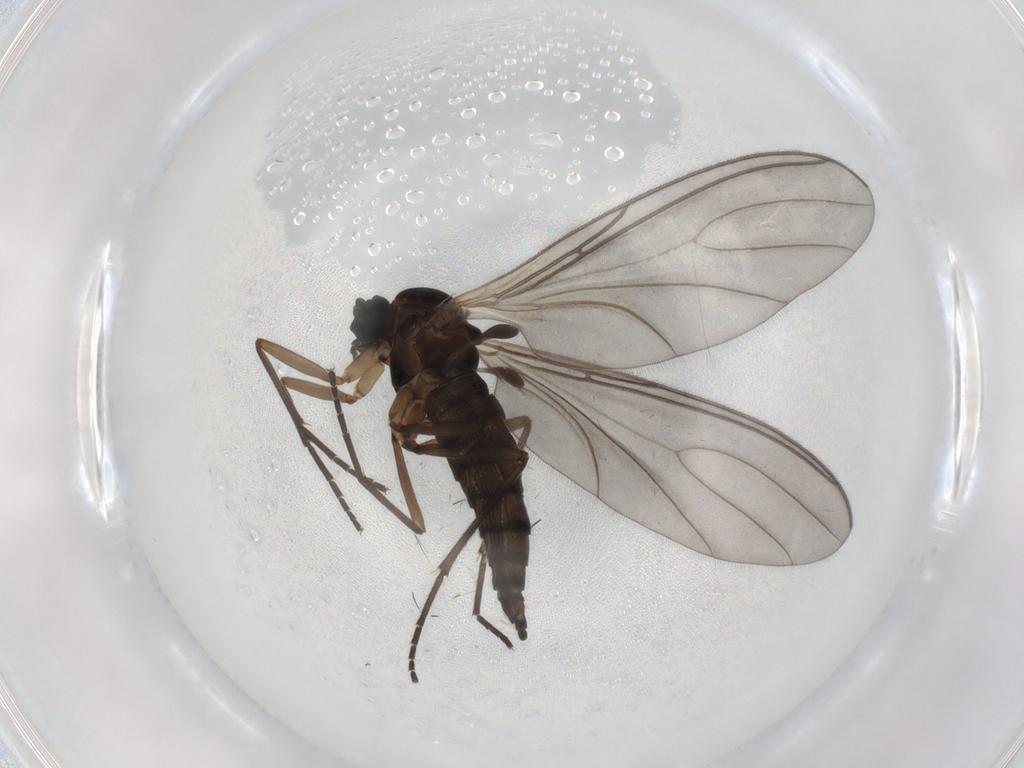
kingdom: Animalia
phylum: Arthropoda
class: Insecta
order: Diptera
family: Sciaridae
